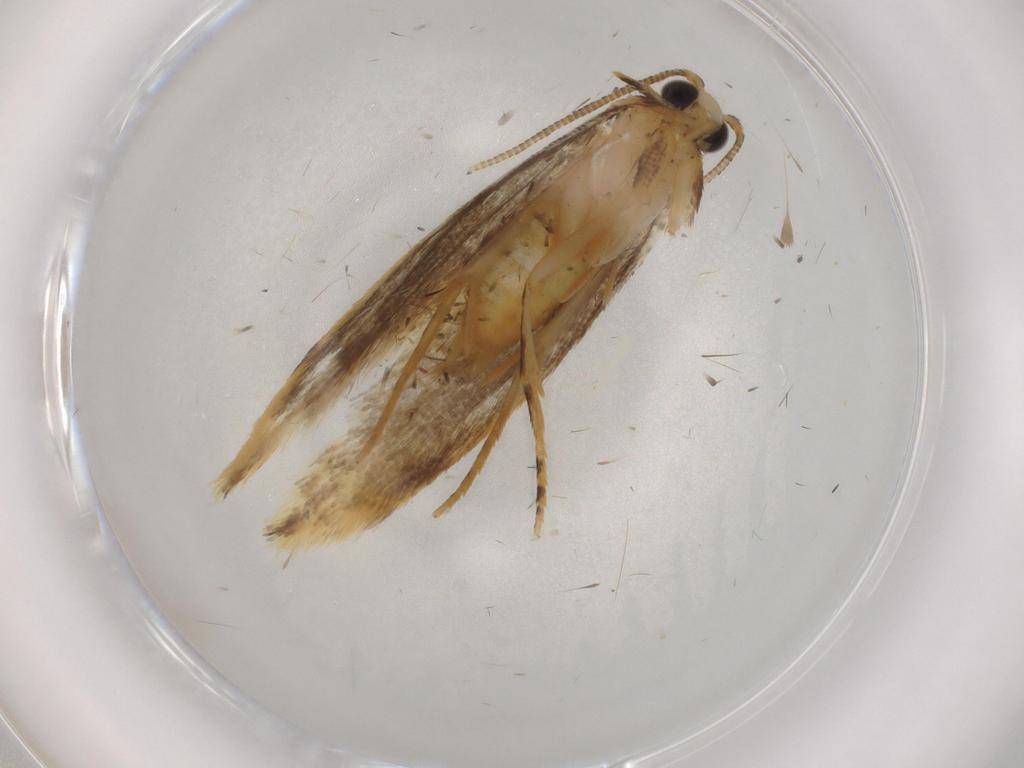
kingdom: Animalia
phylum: Arthropoda
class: Insecta
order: Lepidoptera
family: Tineidae
